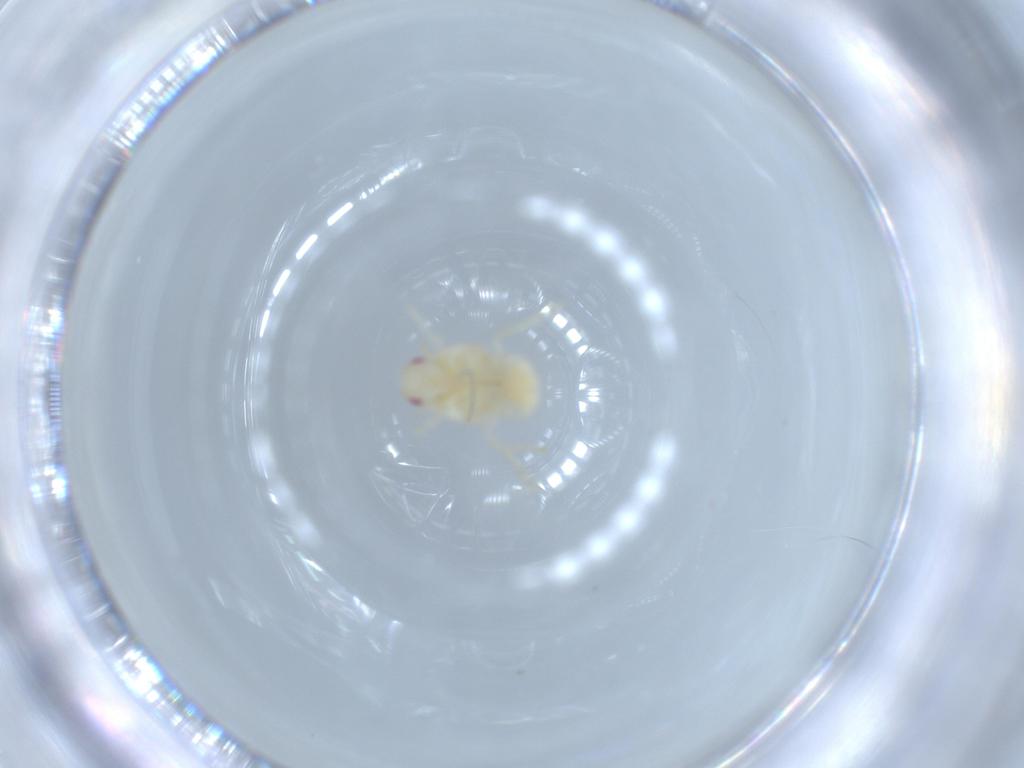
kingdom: Animalia
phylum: Arthropoda
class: Insecta
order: Hemiptera
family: Flatidae
